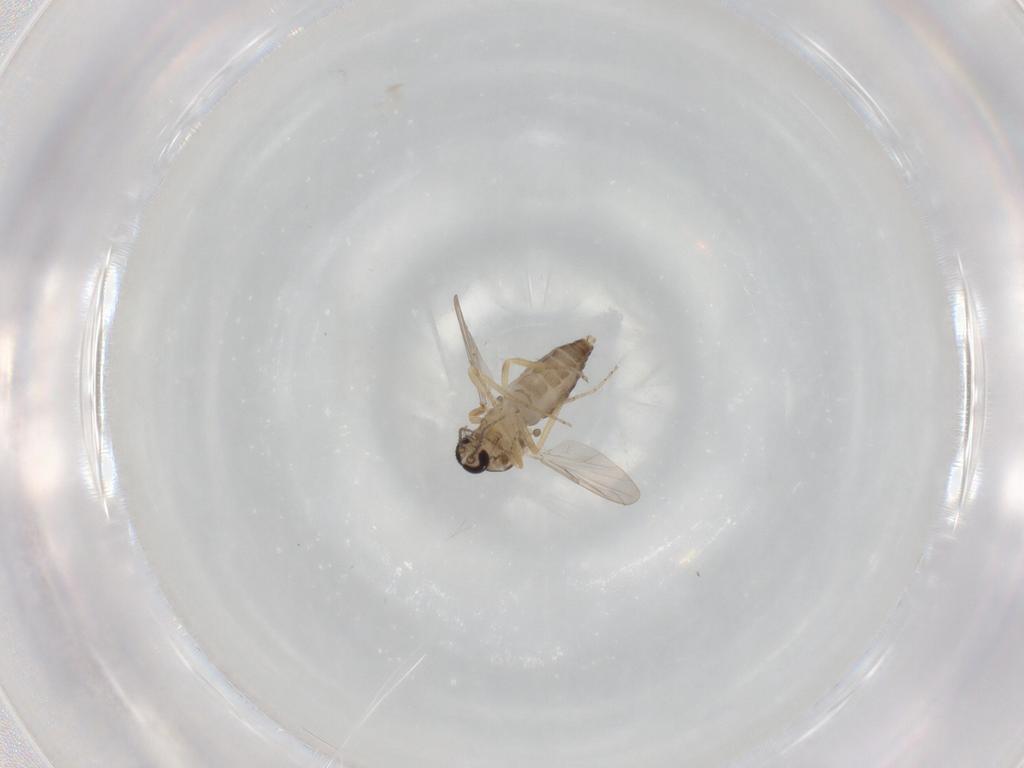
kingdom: Animalia
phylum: Arthropoda
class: Insecta
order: Diptera
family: Ceratopogonidae
